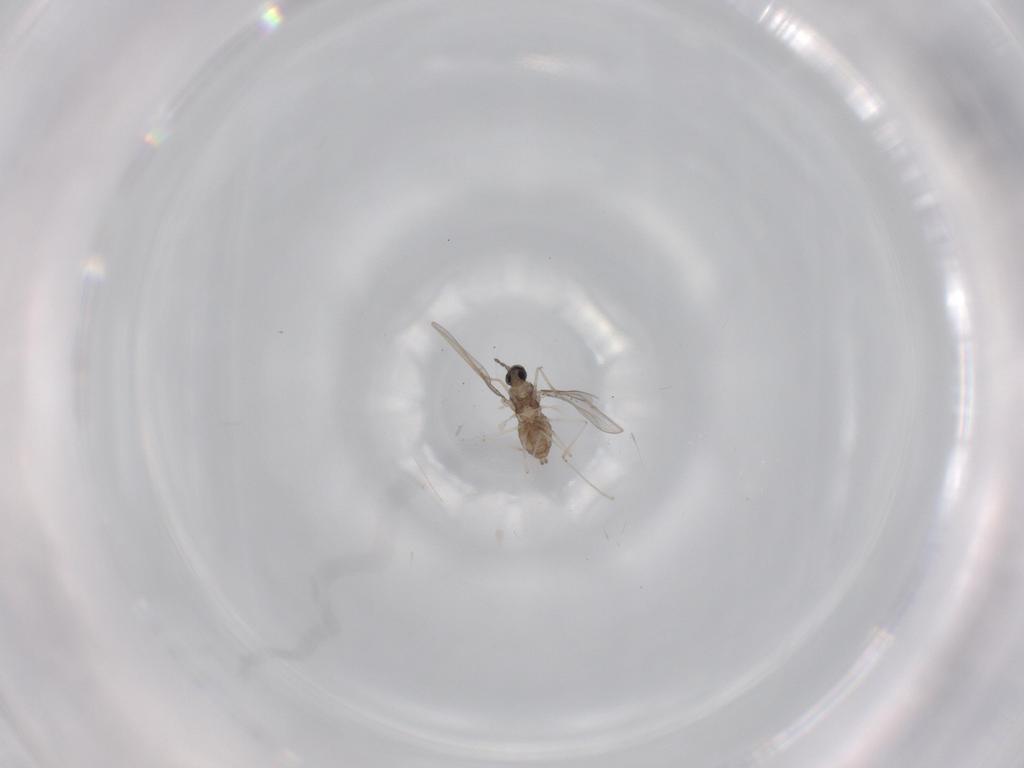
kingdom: Animalia
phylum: Arthropoda
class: Insecta
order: Diptera
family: Cecidomyiidae
